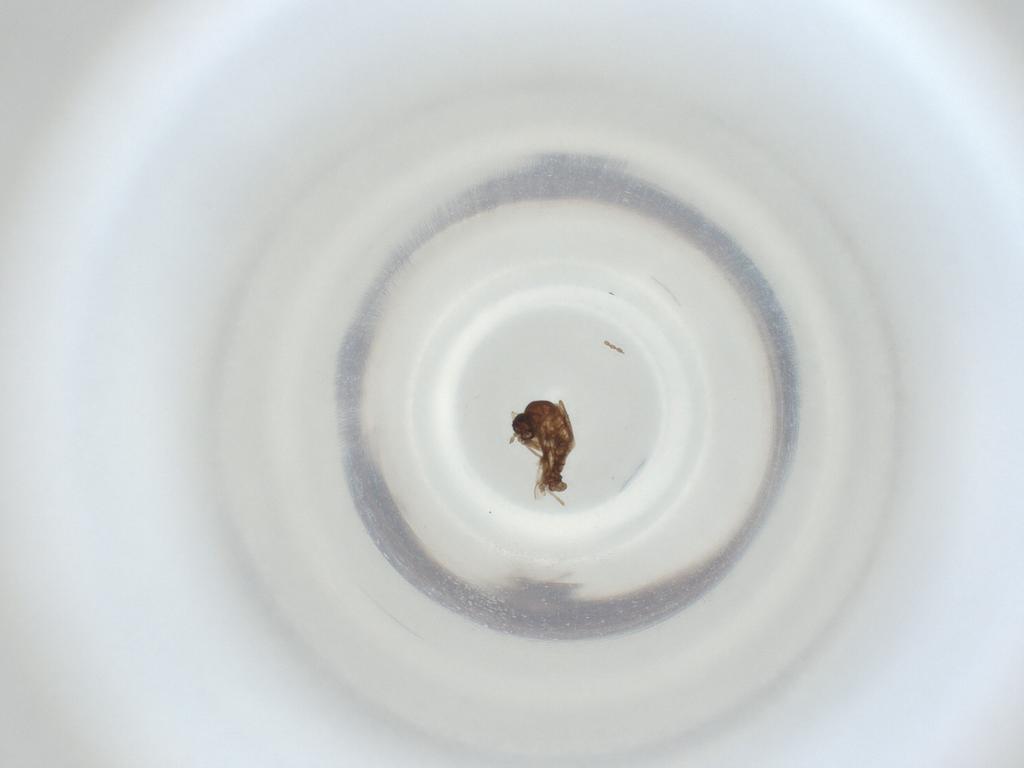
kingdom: Animalia
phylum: Arthropoda
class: Insecta
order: Diptera
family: Cecidomyiidae
